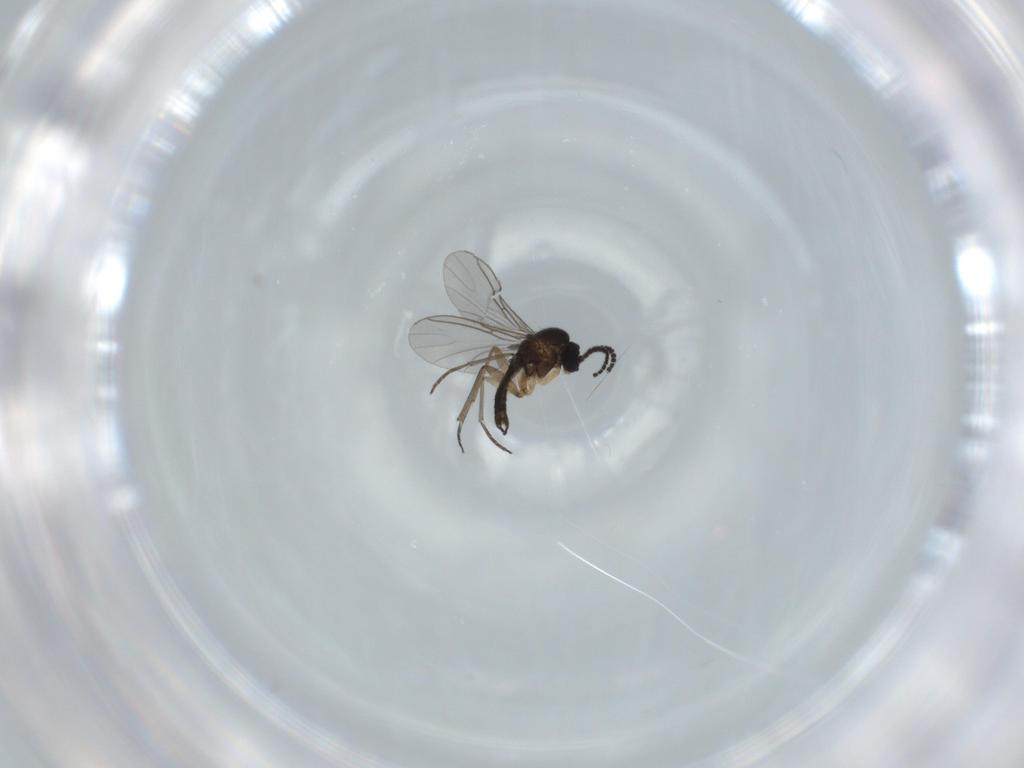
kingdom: Animalia
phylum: Arthropoda
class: Insecta
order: Diptera
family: Sciaridae
